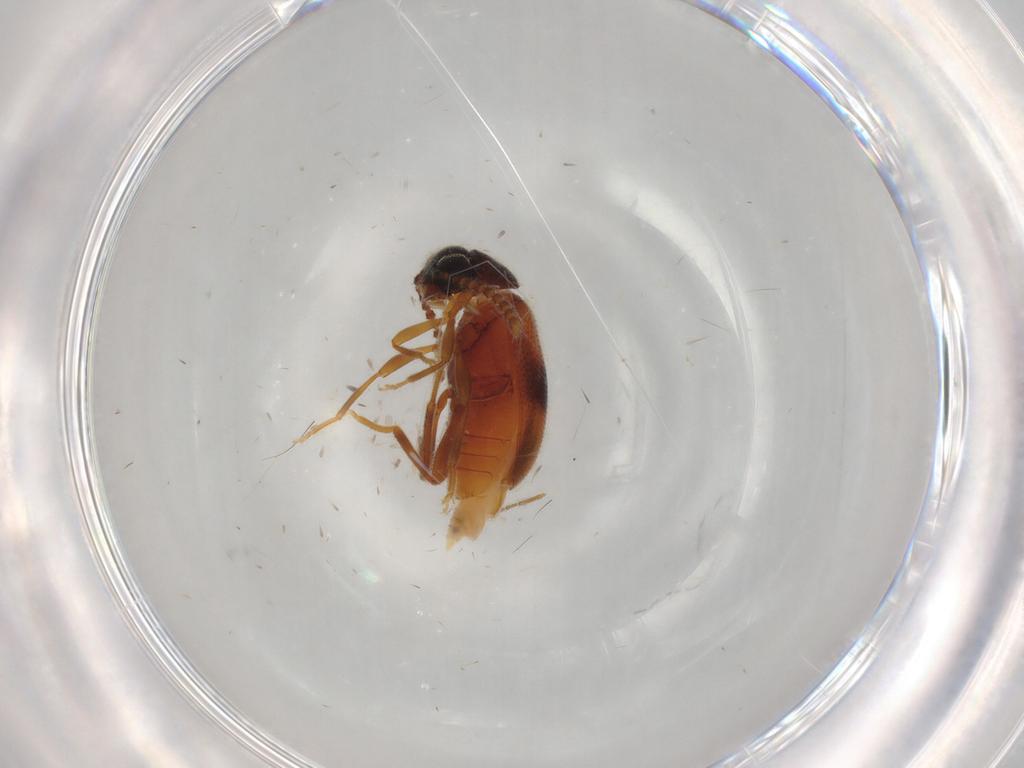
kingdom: Animalia
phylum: Arthropoda
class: Insecta
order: Coleoptera
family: Aderidae
